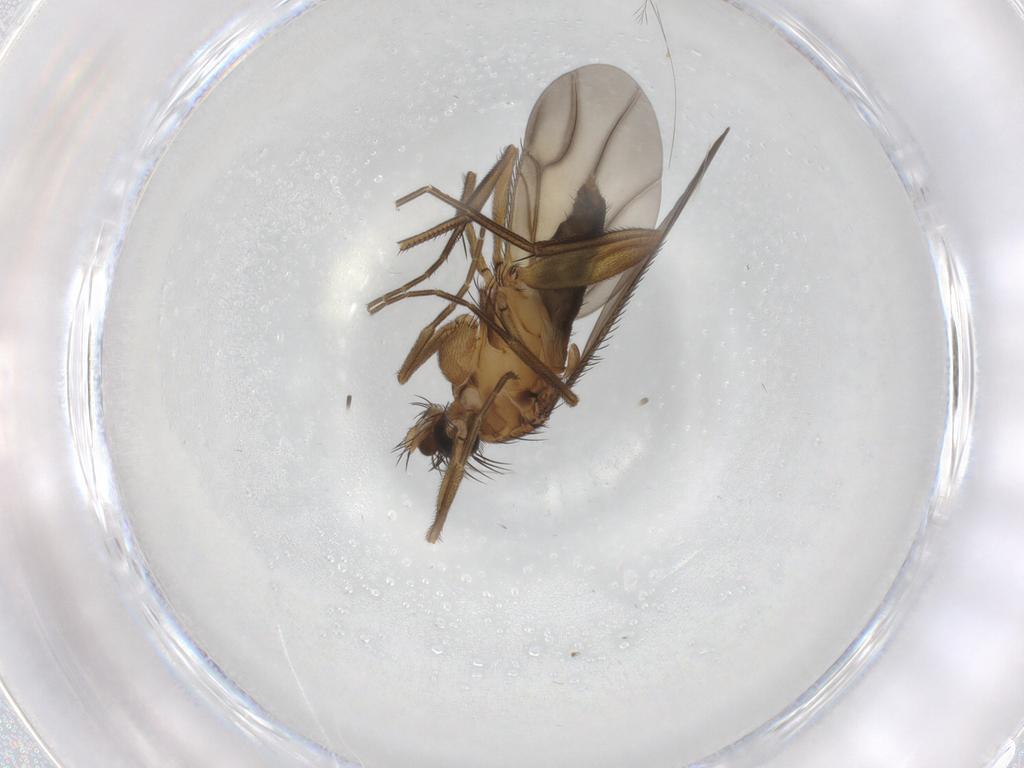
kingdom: Animalia
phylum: Arthropoda
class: Insecta
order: Diptera
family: Phoridae
